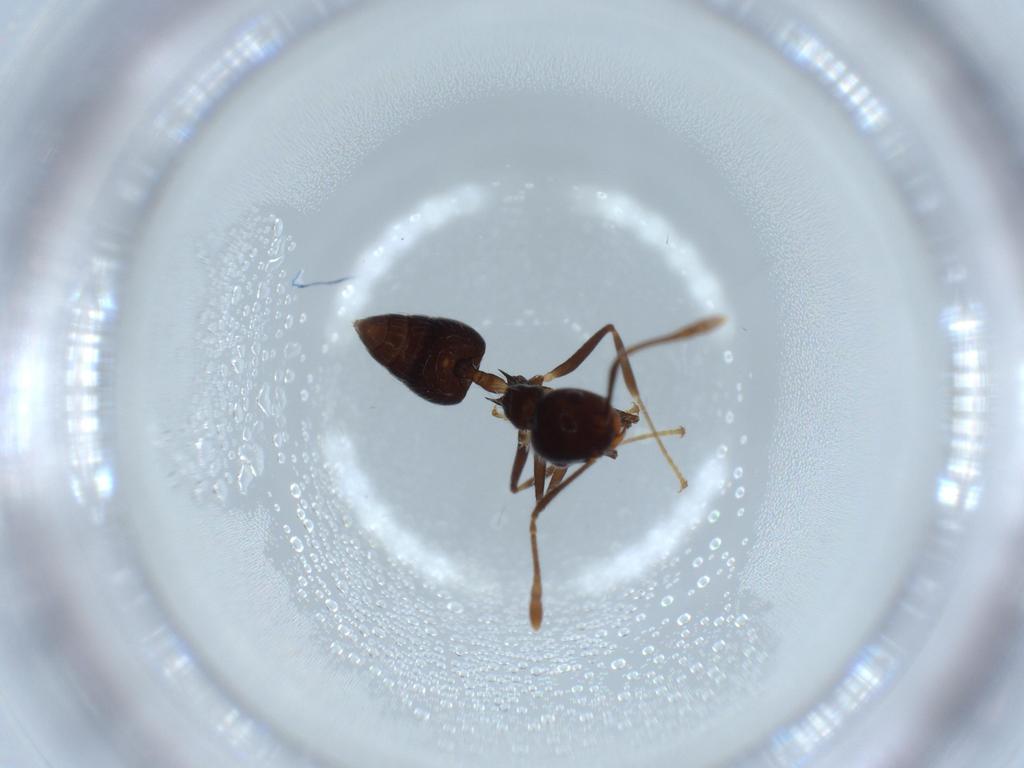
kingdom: Animalia
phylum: Arthropoda
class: Insecta
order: Hymenoptera
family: Formicidae
